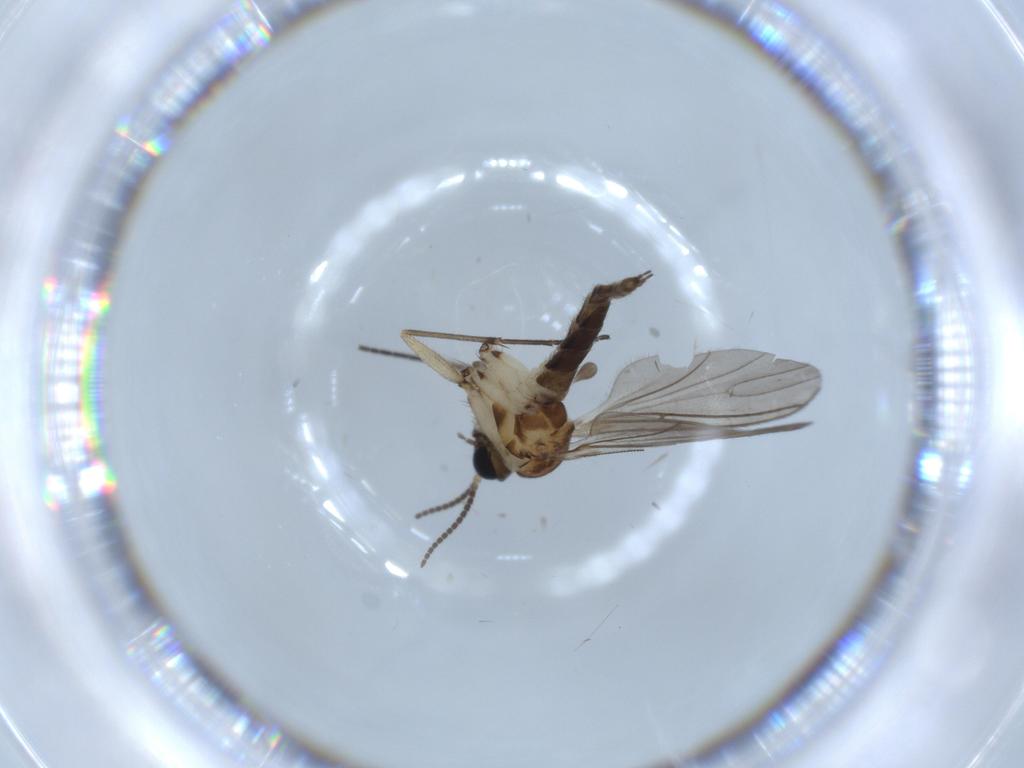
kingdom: Animalia
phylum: Arthropoda
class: Insecta
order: Diptera
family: Sciaridae
